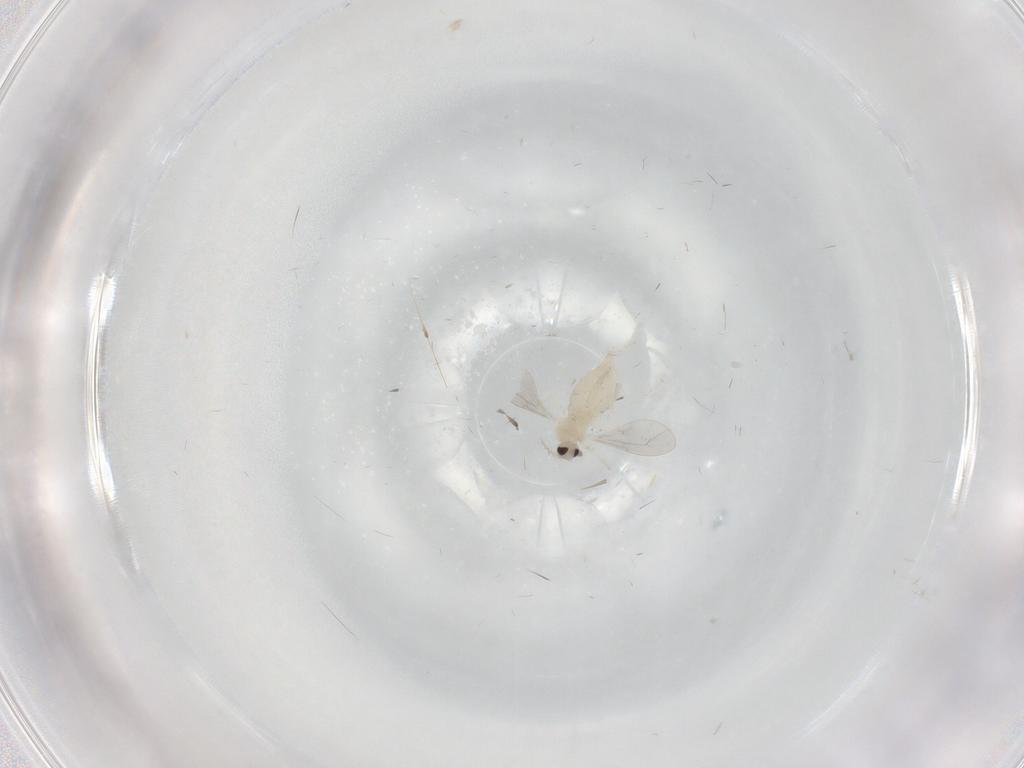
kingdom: Animalia
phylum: Arthropoda
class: Insecta
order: Diptera
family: Cecidomyiidae
